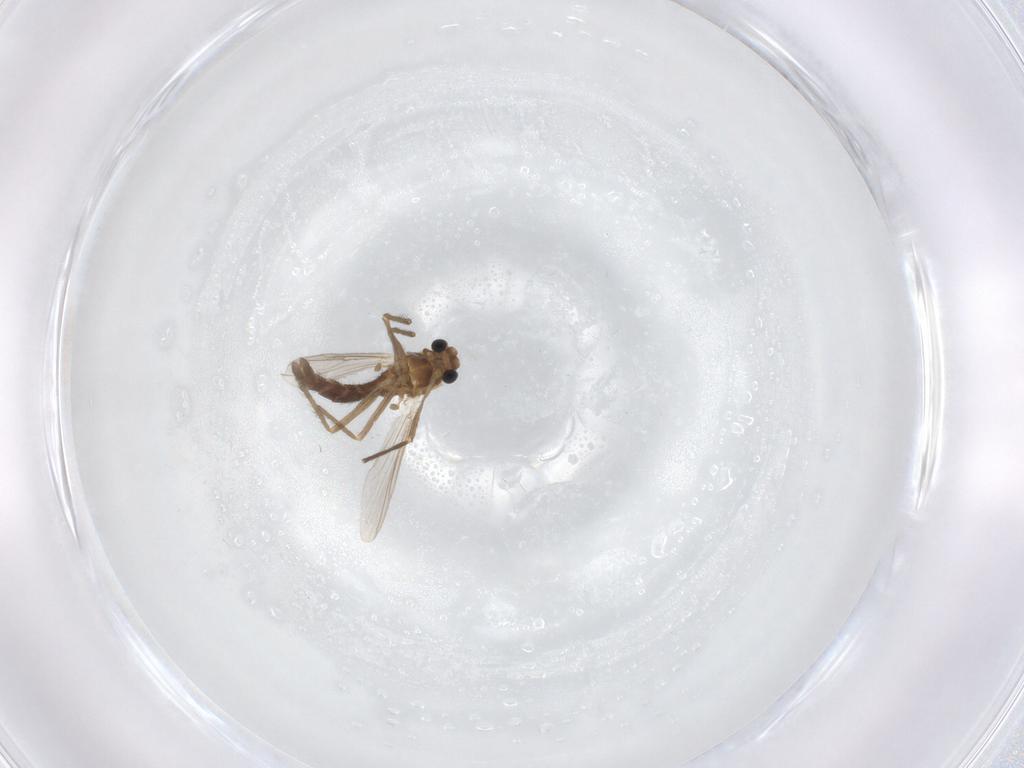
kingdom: Animalia
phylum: Arthropoda
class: Insecta
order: Diptera
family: Chironomidae
